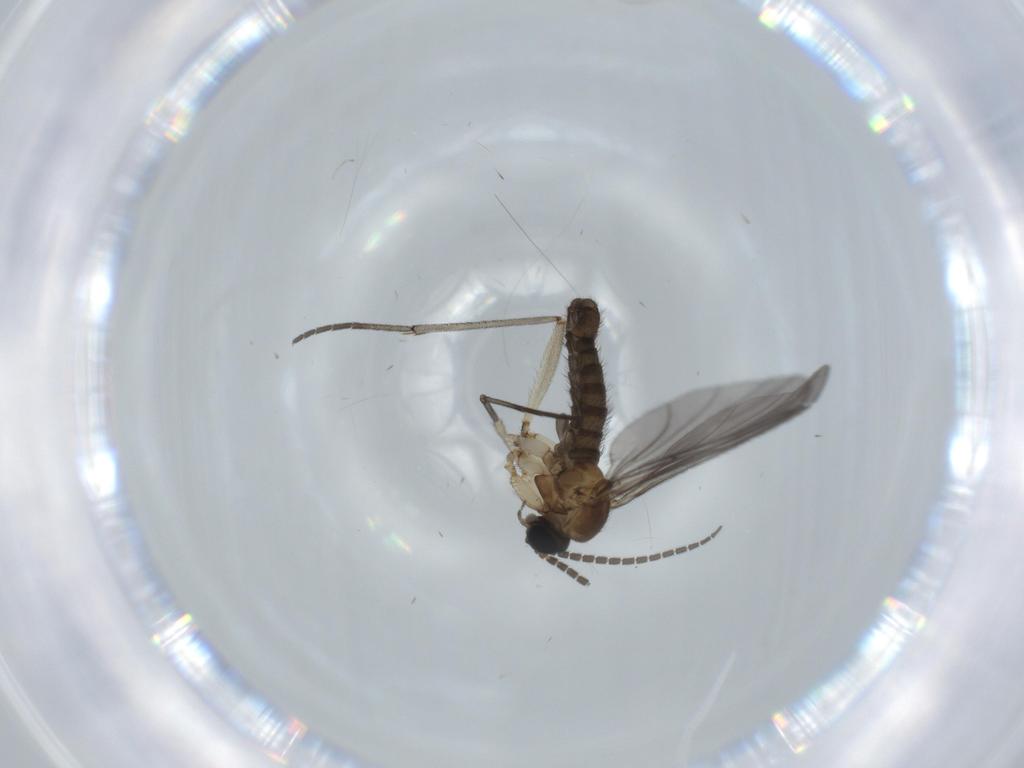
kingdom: Animalia
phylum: Arthropoda
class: Insecta
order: Diptera
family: Sciaridae
